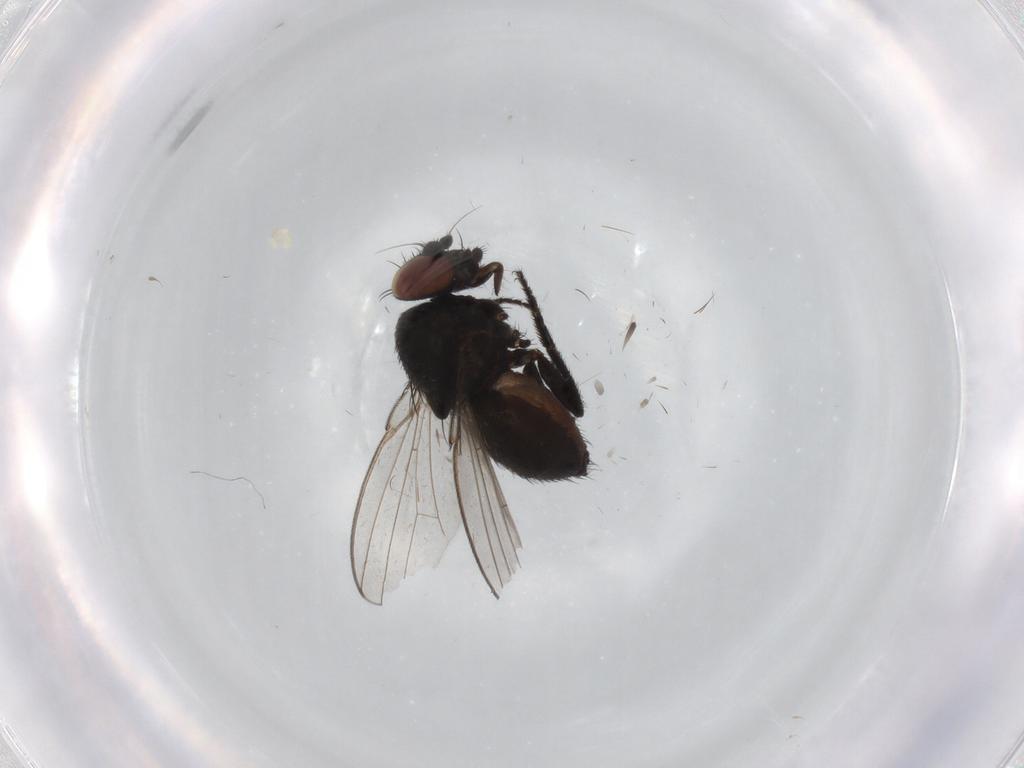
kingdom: Animalia
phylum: Arthropoda
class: Insecta
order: Diptera
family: Milichiidae
